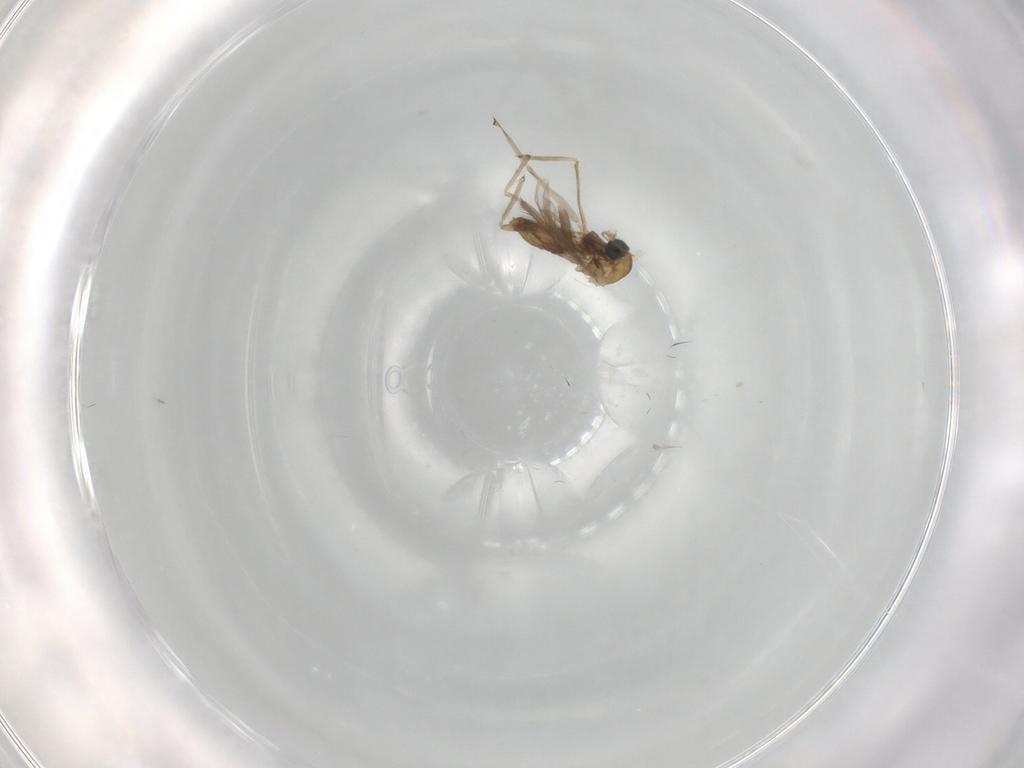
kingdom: Animalia
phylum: Arthropoda
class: Insecta
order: Diptera
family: Chironomidae
